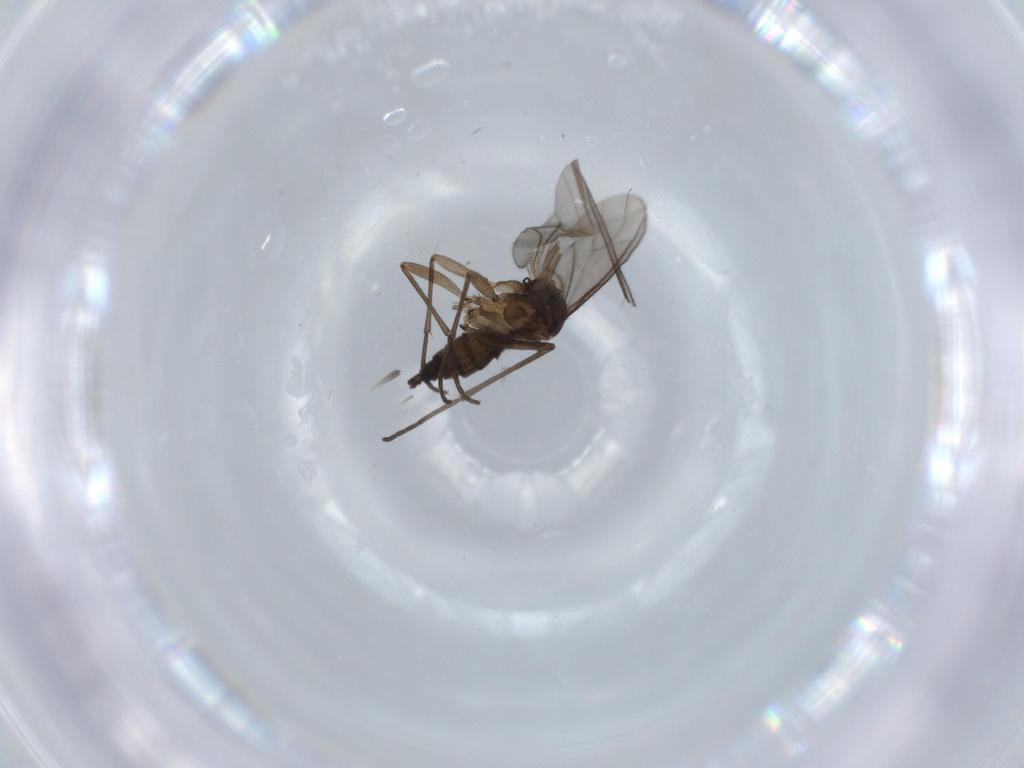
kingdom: Animalia
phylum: Arthropoda
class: Insecta
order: Diptera
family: Sciaridae
